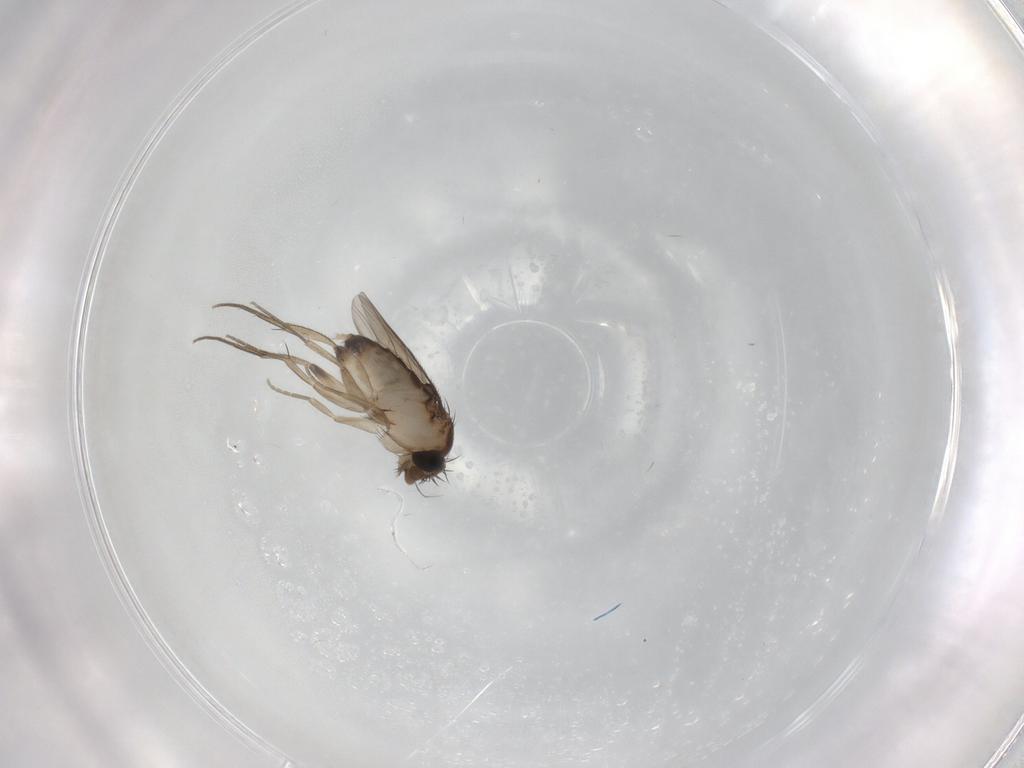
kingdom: Animalia
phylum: Arthropoda
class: Insecta
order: Diptera
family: Phoridae
